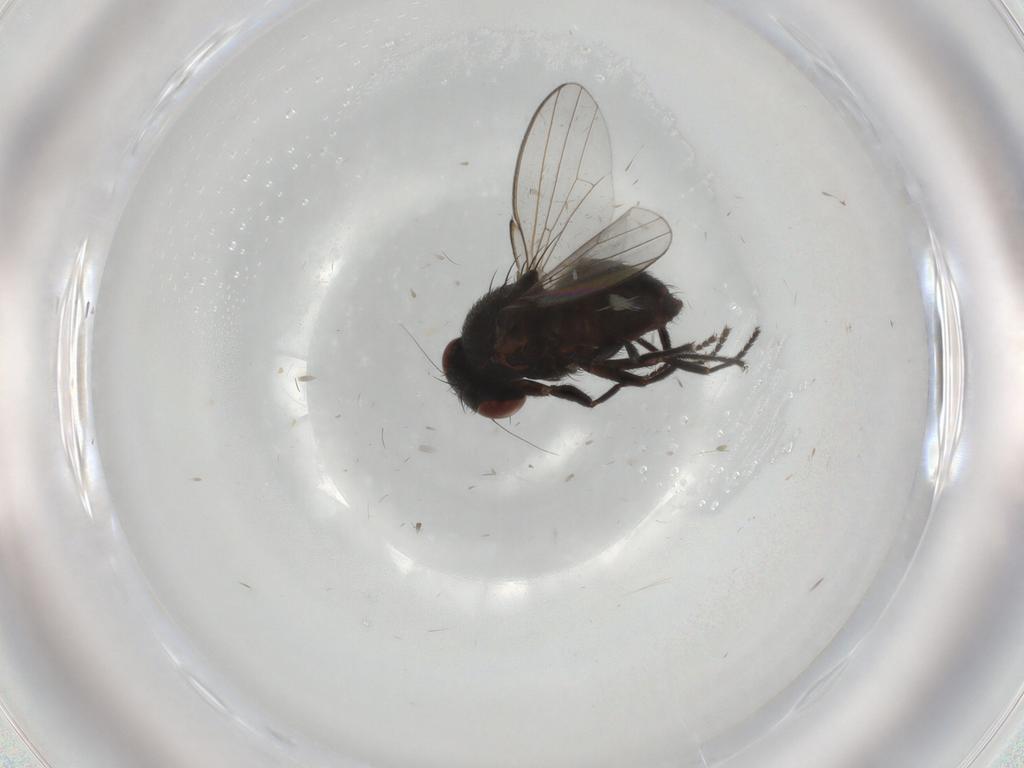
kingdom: Animalia
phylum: Arthropoda
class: Insecta
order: Diptera
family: Milichiidae
